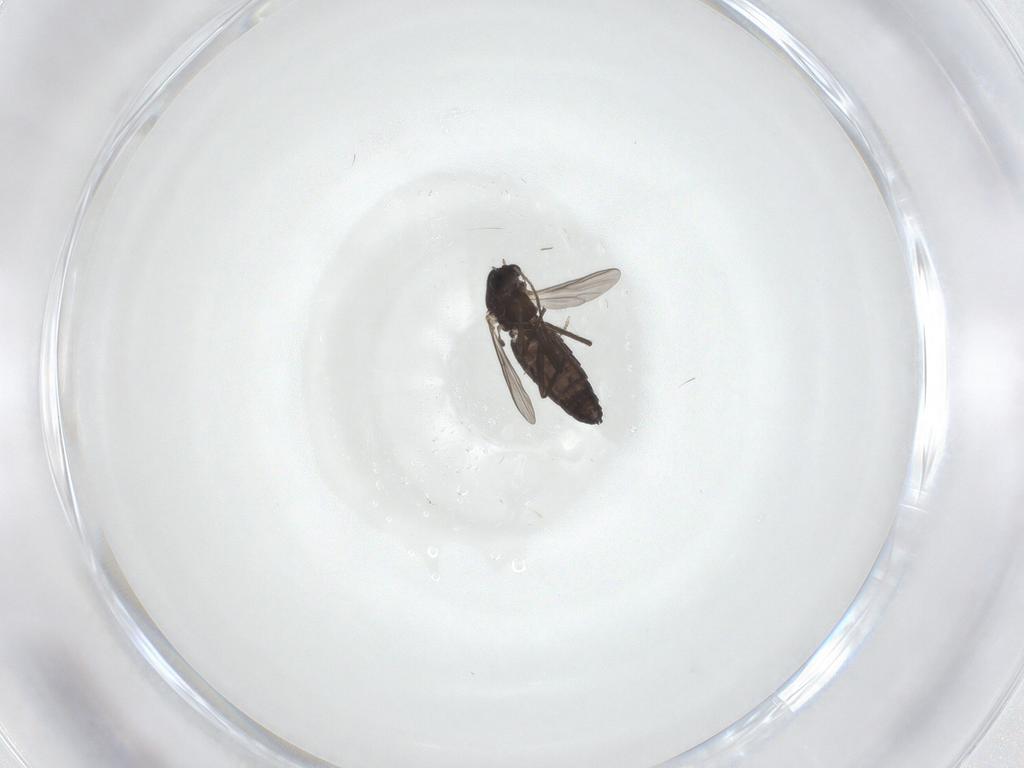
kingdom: Animalia
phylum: Arthropoda
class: Insecta
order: Diptera
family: Chironomidae
